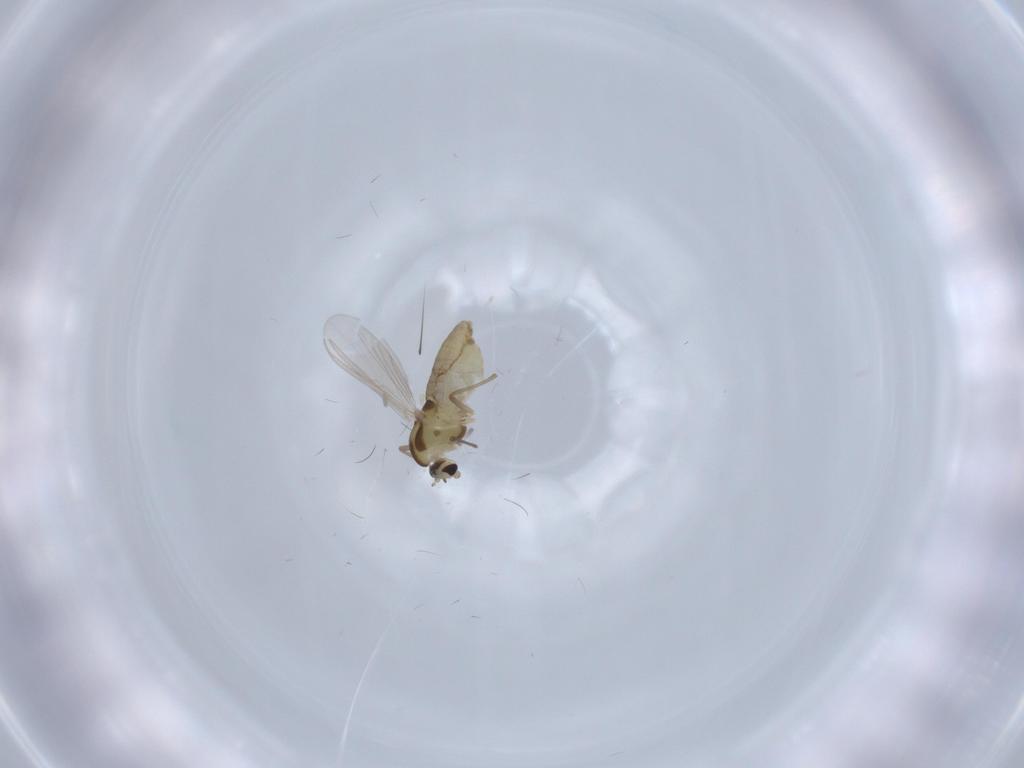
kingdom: Animalia
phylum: Arthropoda
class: Insecta
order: Diptera
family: Chironomidae
